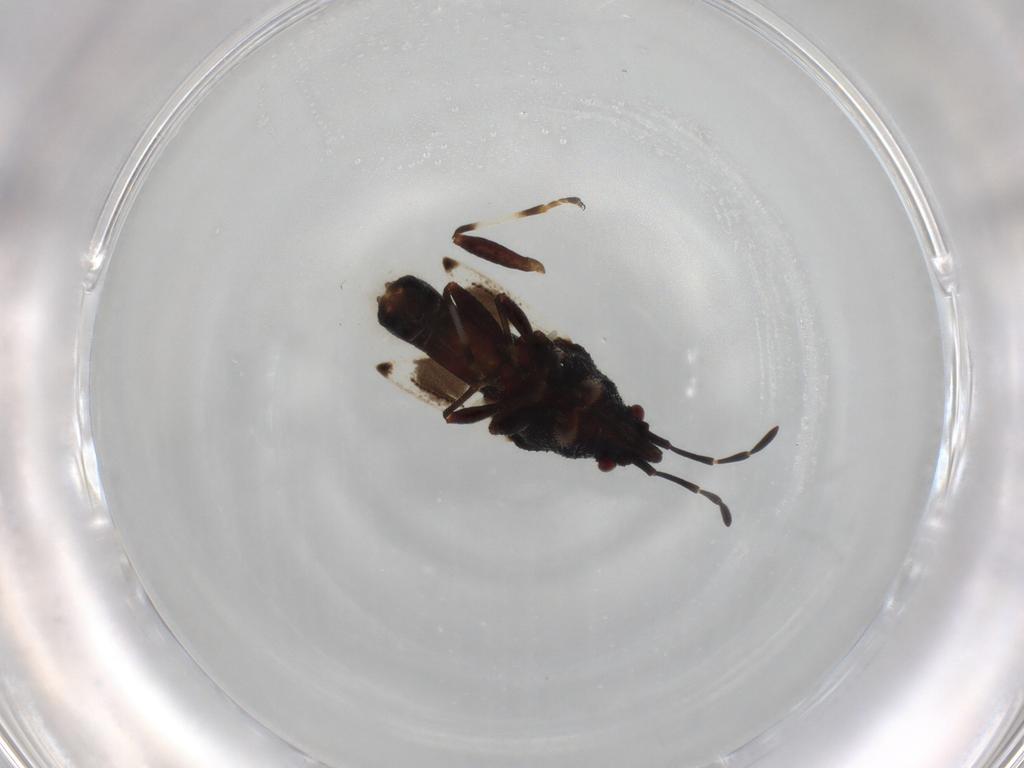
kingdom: Animalia
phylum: Arthropoda
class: Insecta
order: Hemiptera
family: Oxycarenidae
